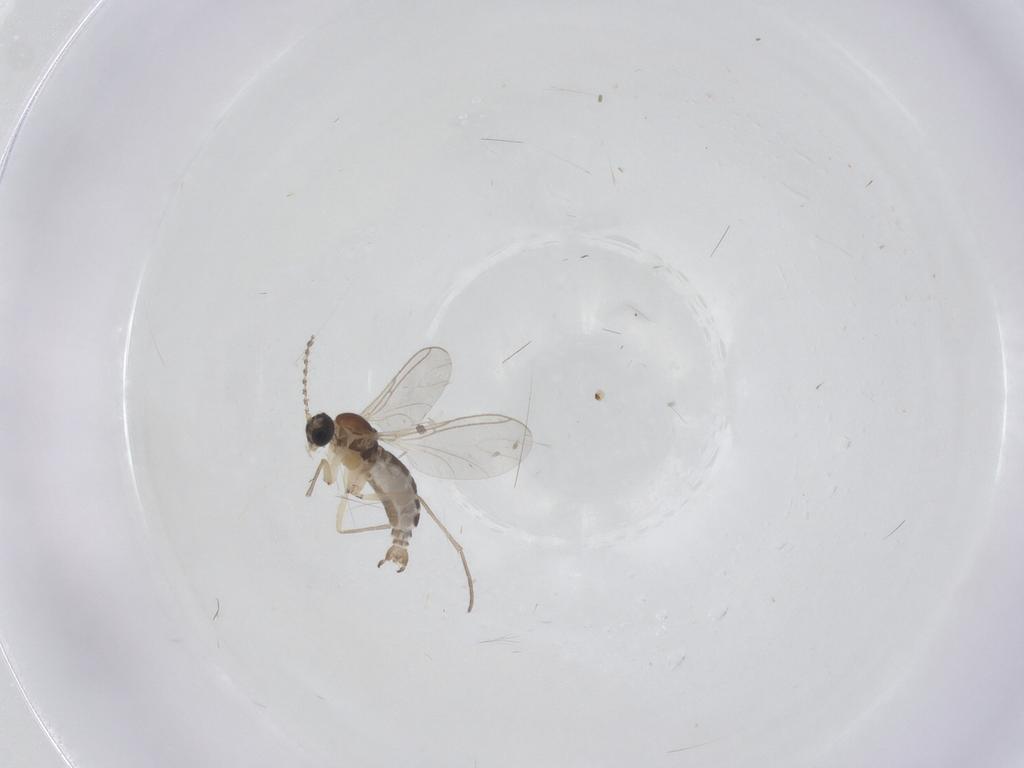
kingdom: Animalia
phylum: Arthropoda
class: Insecta
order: Diptera
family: Sciaridae
